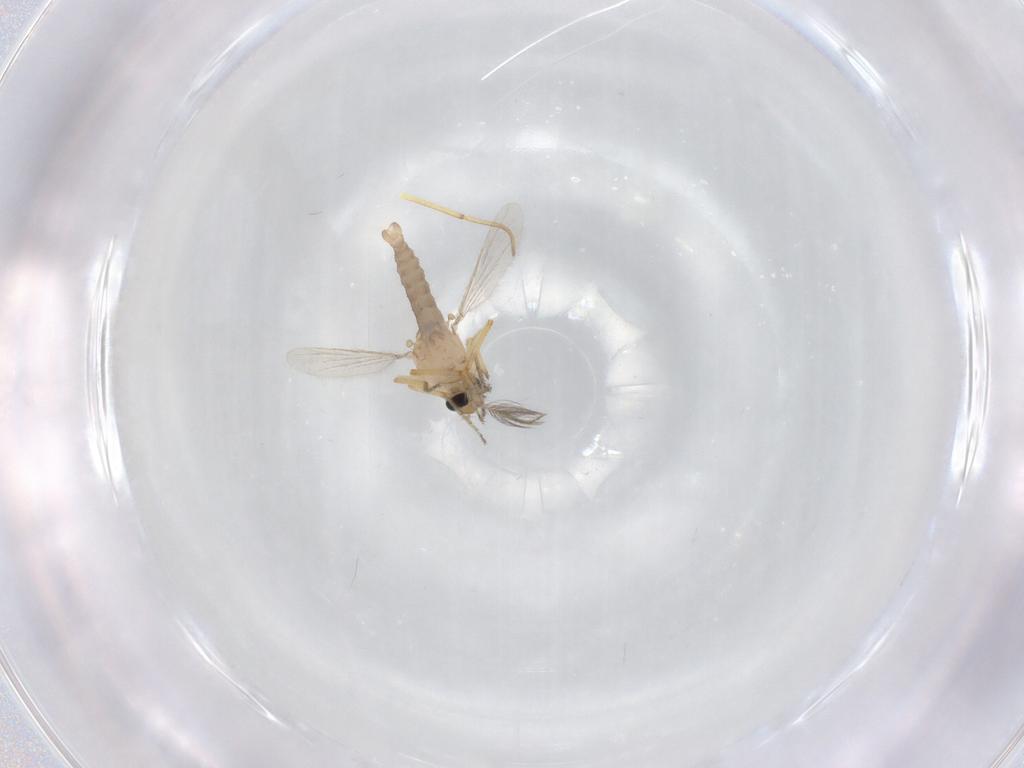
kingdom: Animalia
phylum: Arthropoda
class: Insecta
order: Diptera
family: Ceratopogonidae
